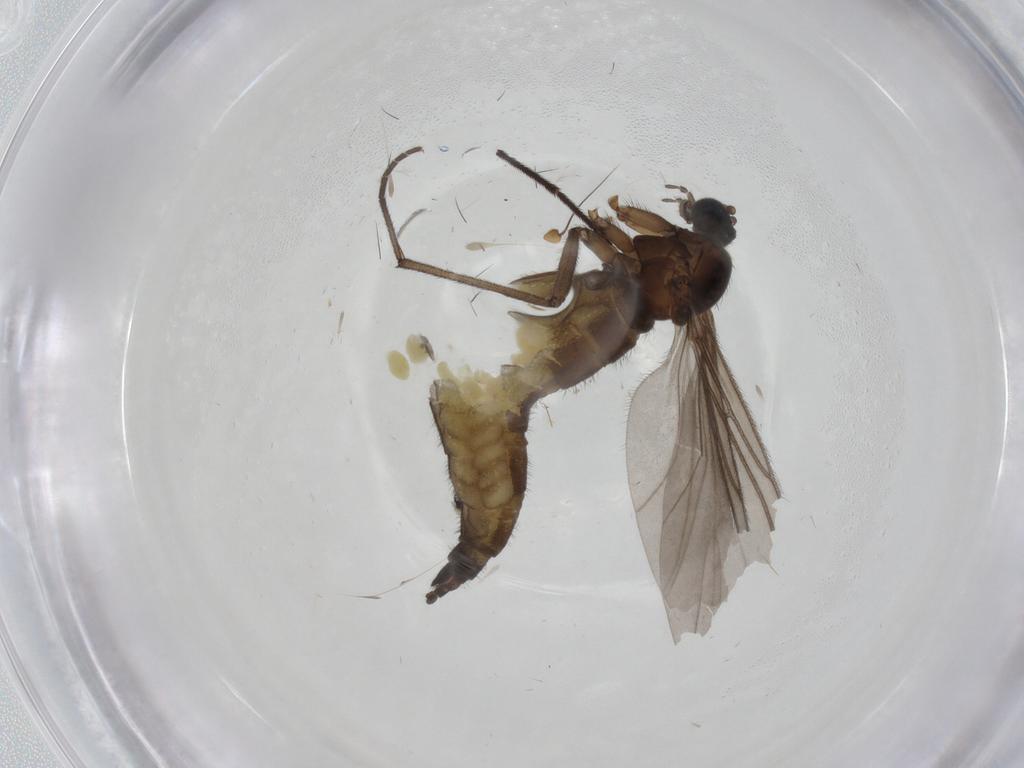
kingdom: Animalia
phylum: Arthropoda
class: Insecta
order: Diptera
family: Sciaridae
